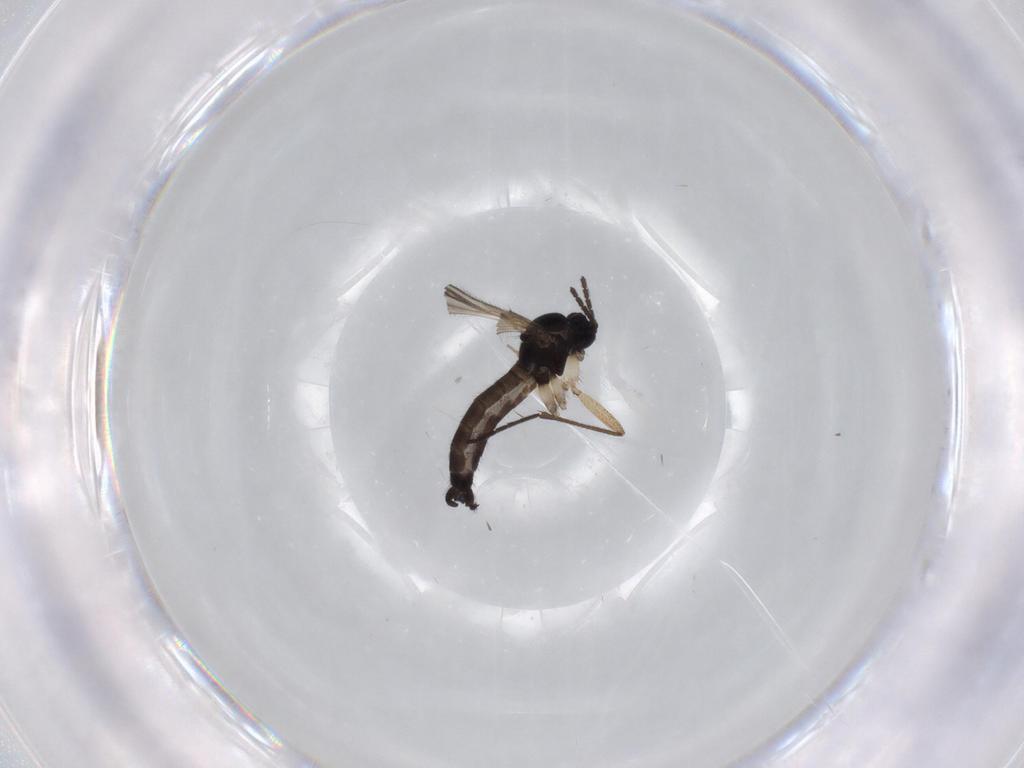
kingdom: Animalia
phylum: Arthropoda
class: Insecta
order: Diptera
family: Sciaridae
